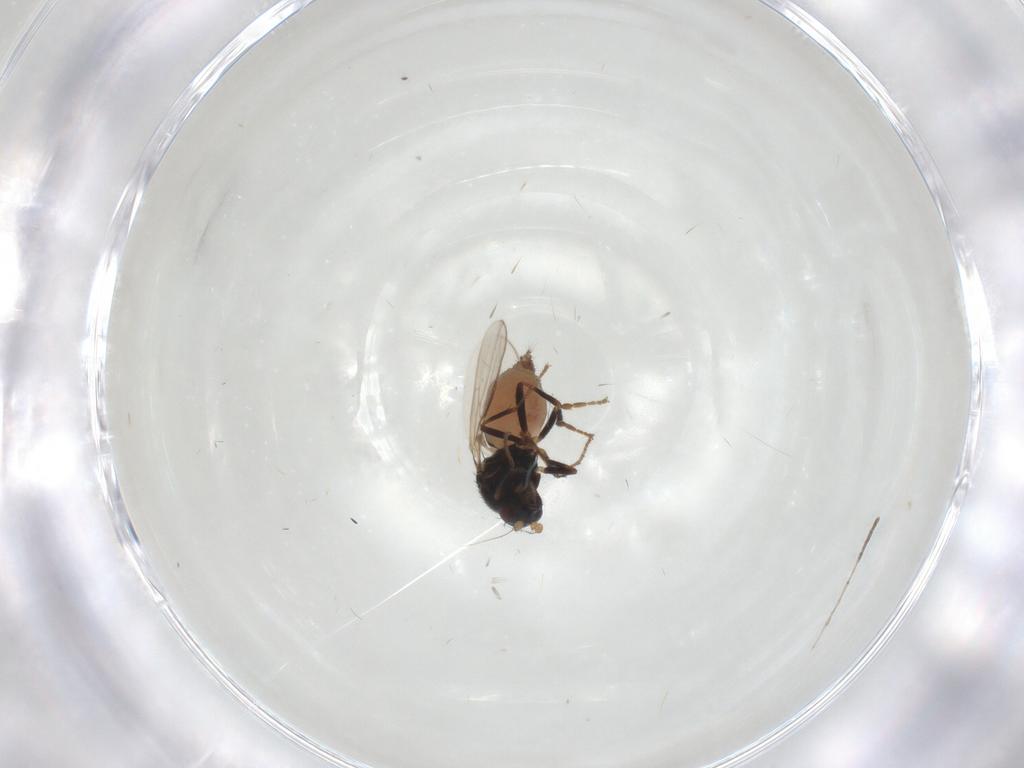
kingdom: Animalia
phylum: Arthropoda
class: Insecta
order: Diptera
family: Sphaeroceridae
